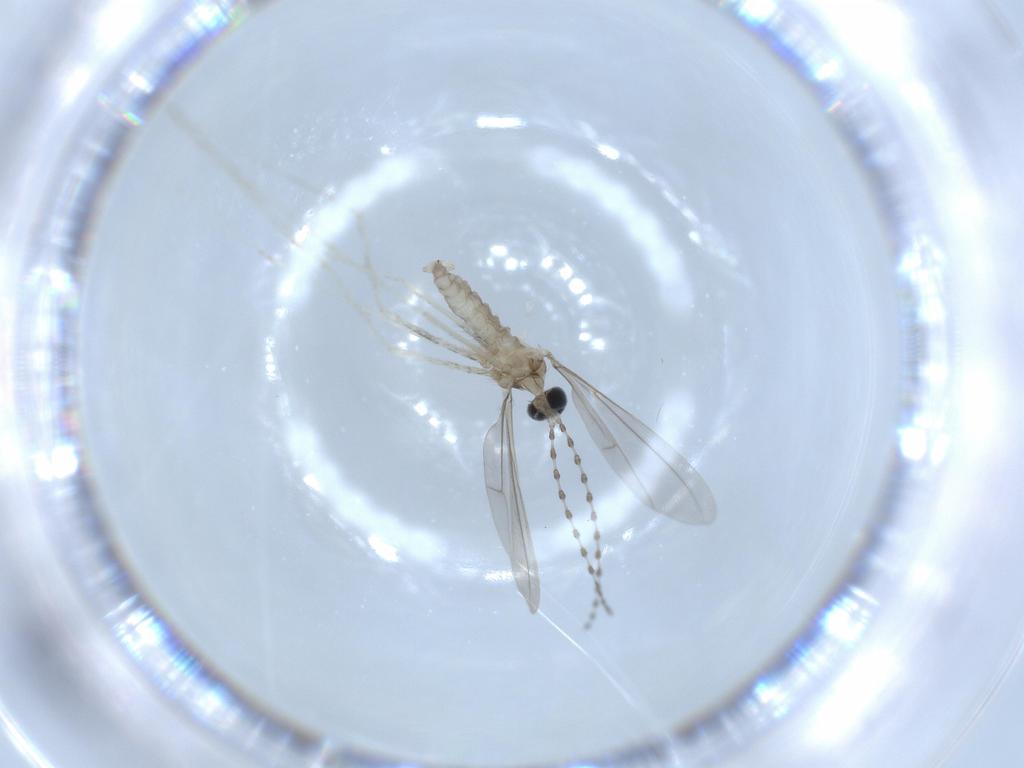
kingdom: Animalia
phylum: Arthropoda
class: Insecta
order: Diptera
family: Cecidomyiidae
